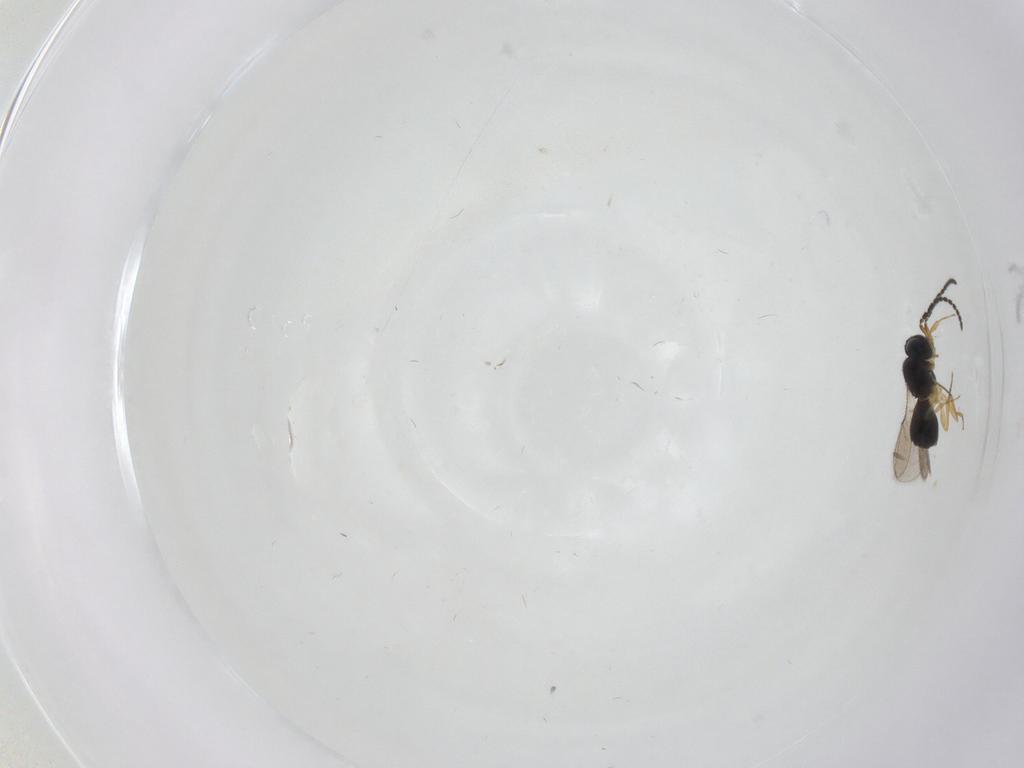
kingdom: Animalia
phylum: Arthropoda
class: Insecta
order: Hymenoptera
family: Scelionidae
